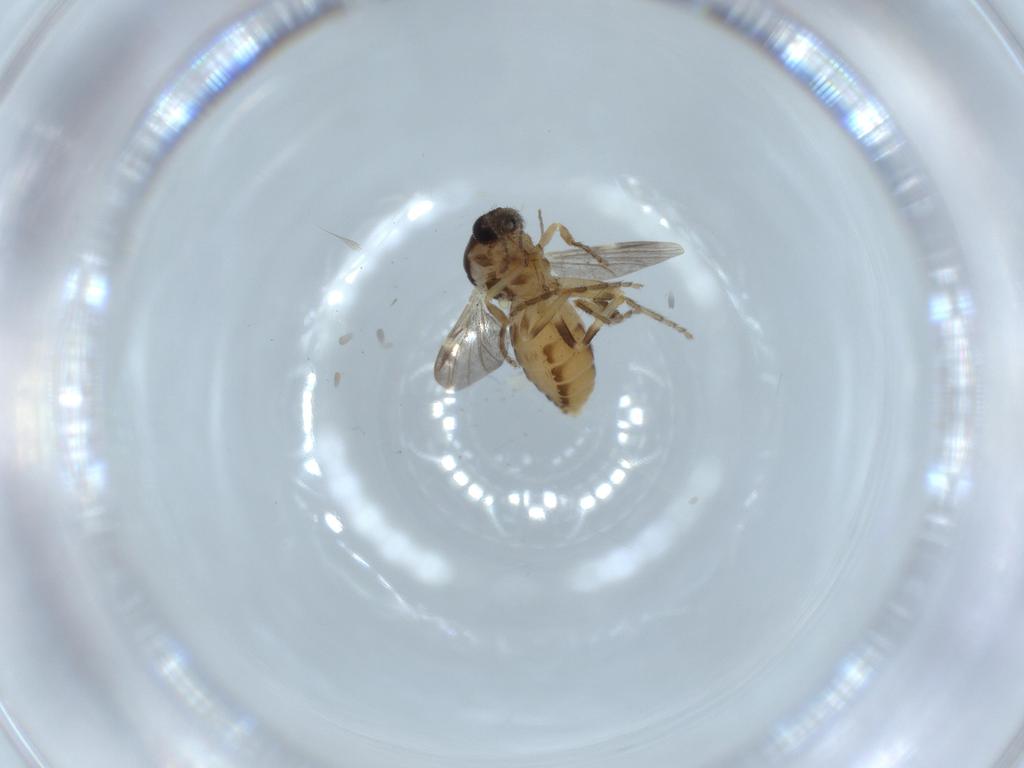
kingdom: Animalia
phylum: Arthropoda
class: Insecta
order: Diptera
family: Ceratopogonidae
